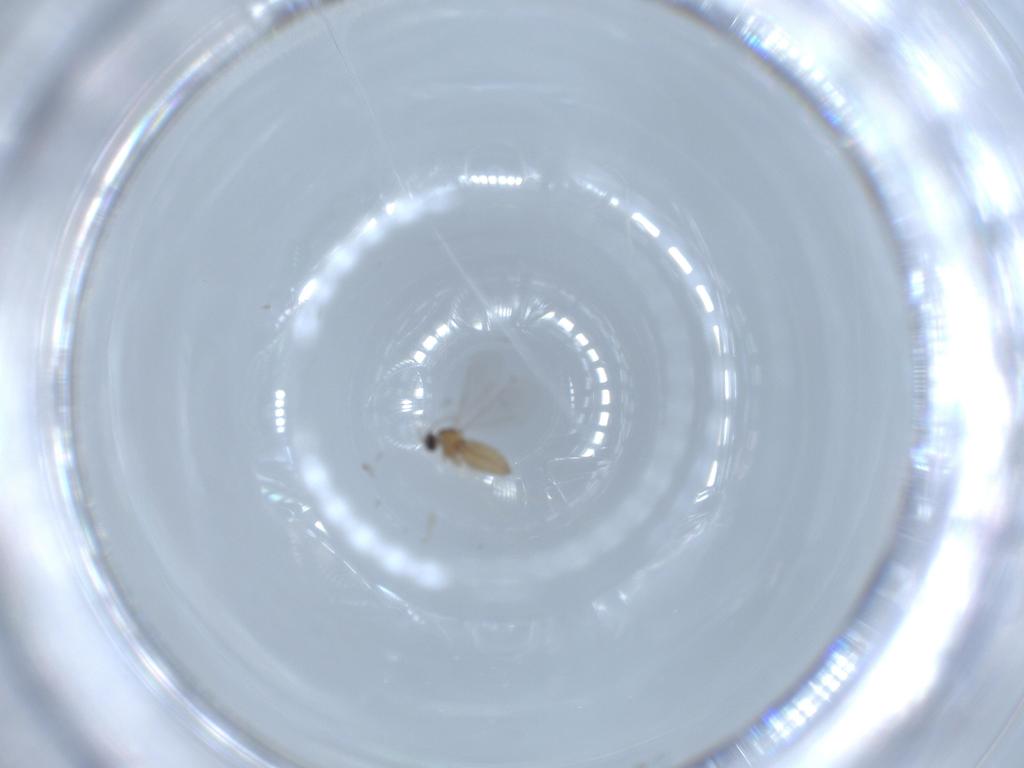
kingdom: Animalia
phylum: Arthropoda
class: Insecta
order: Diptera
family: Cecidomyiidae
